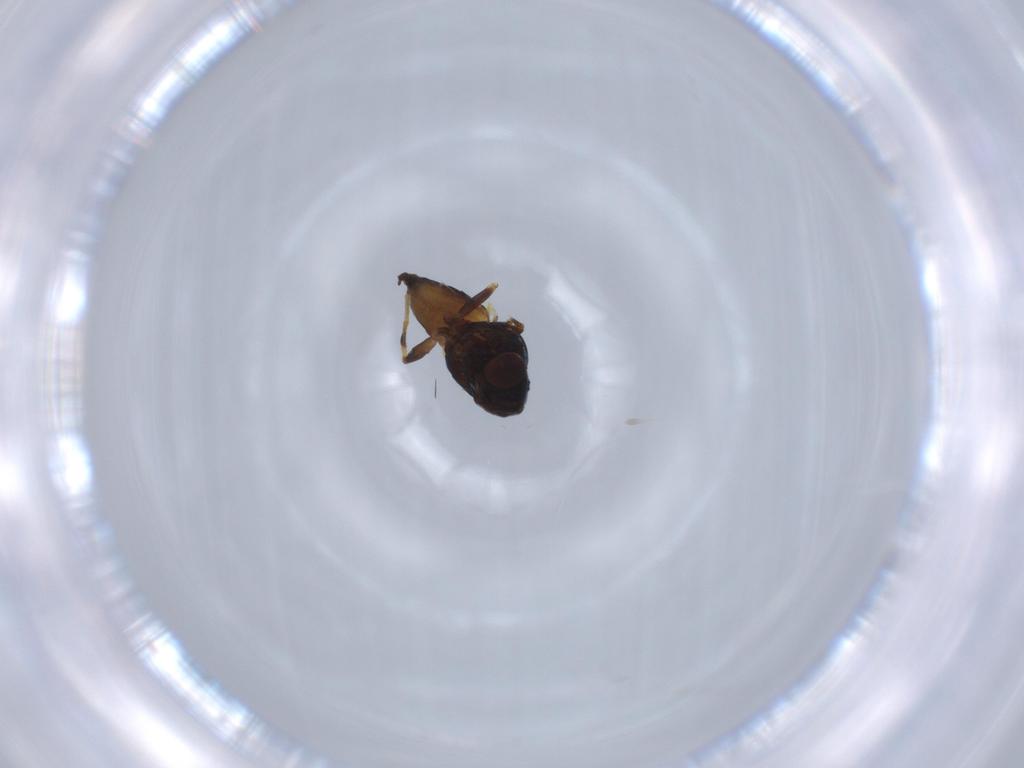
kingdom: Animalia
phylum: Arthropoda
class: Insecta
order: Diptera
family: Chloropidae
